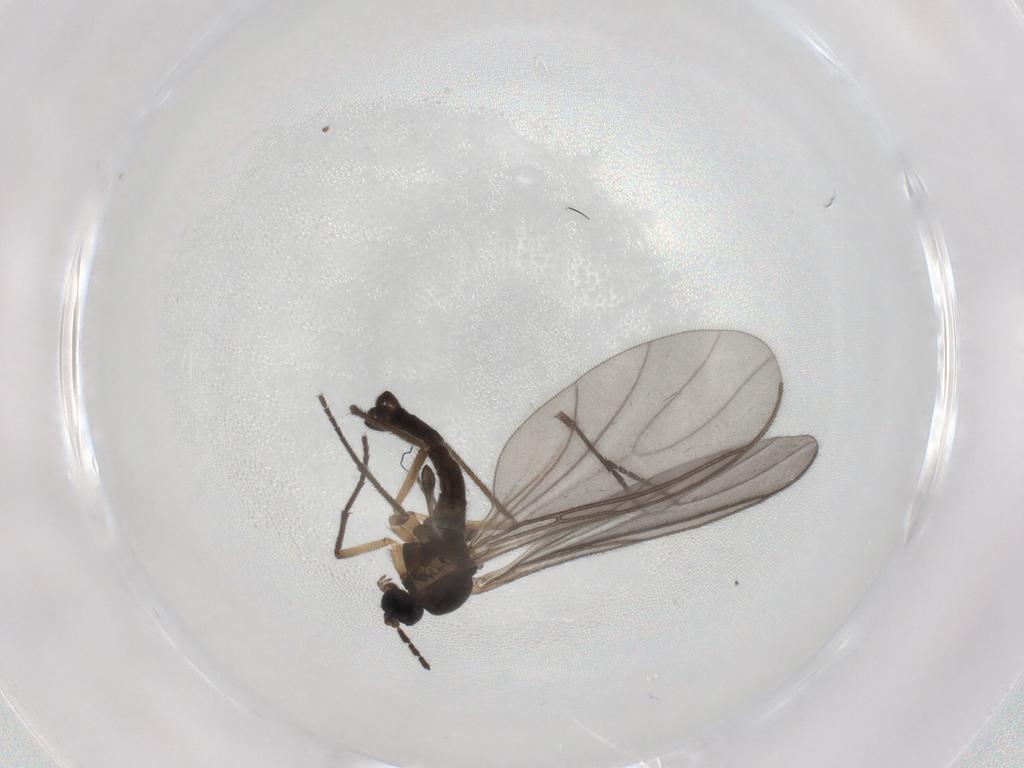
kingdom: Animalia
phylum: Arthropoda
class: Insecta
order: Diptera
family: Sciaridae
